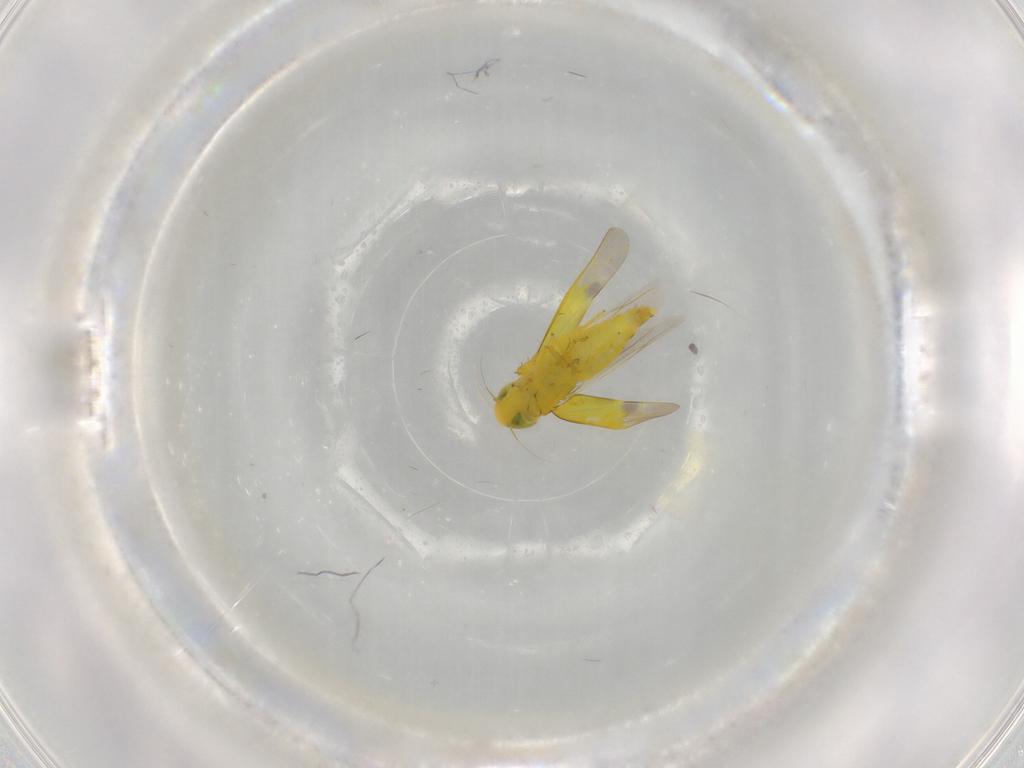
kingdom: Animalia
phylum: Arthropoda
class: Insecta
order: Hemiptera
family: Cicadellidae
